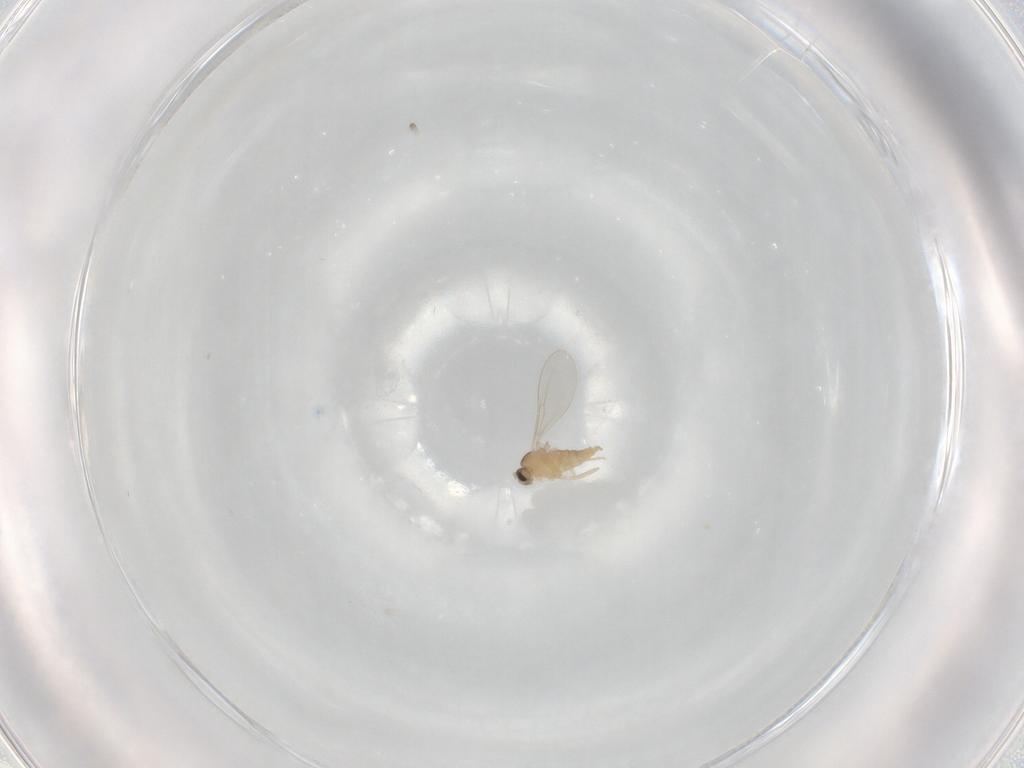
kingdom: Animalia
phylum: Arthropoda
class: Insecta
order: Diptera
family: Cecidomyiidae
